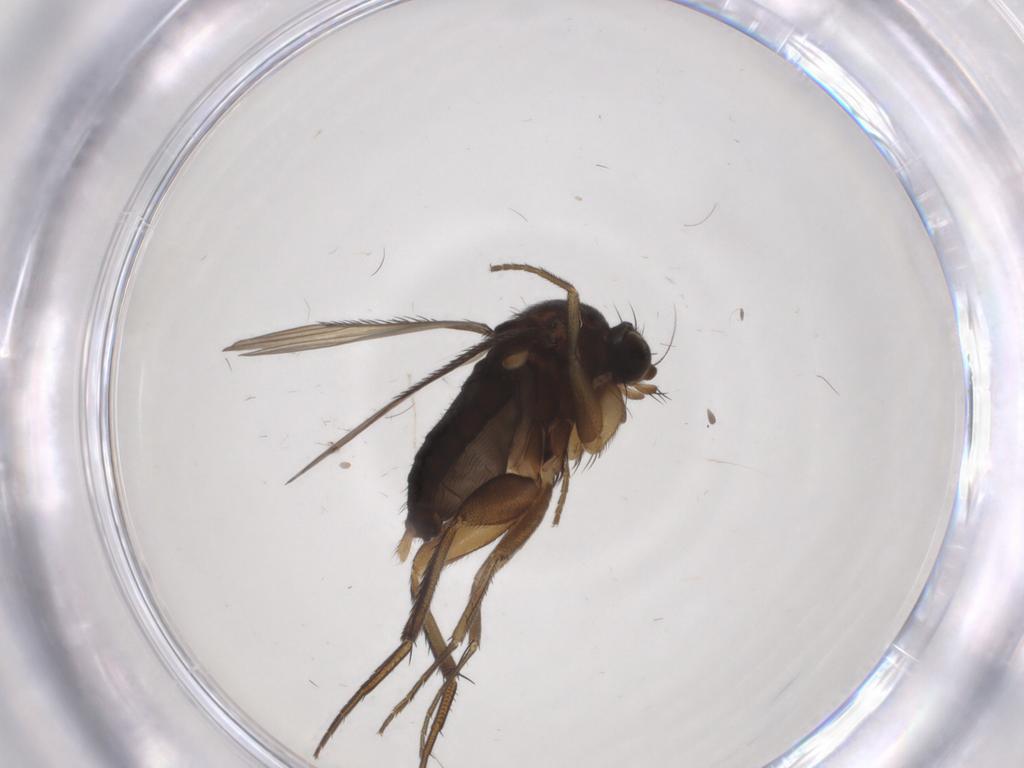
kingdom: Animalia
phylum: Arthropoda
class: Insecta
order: Diptera
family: Phoridae
